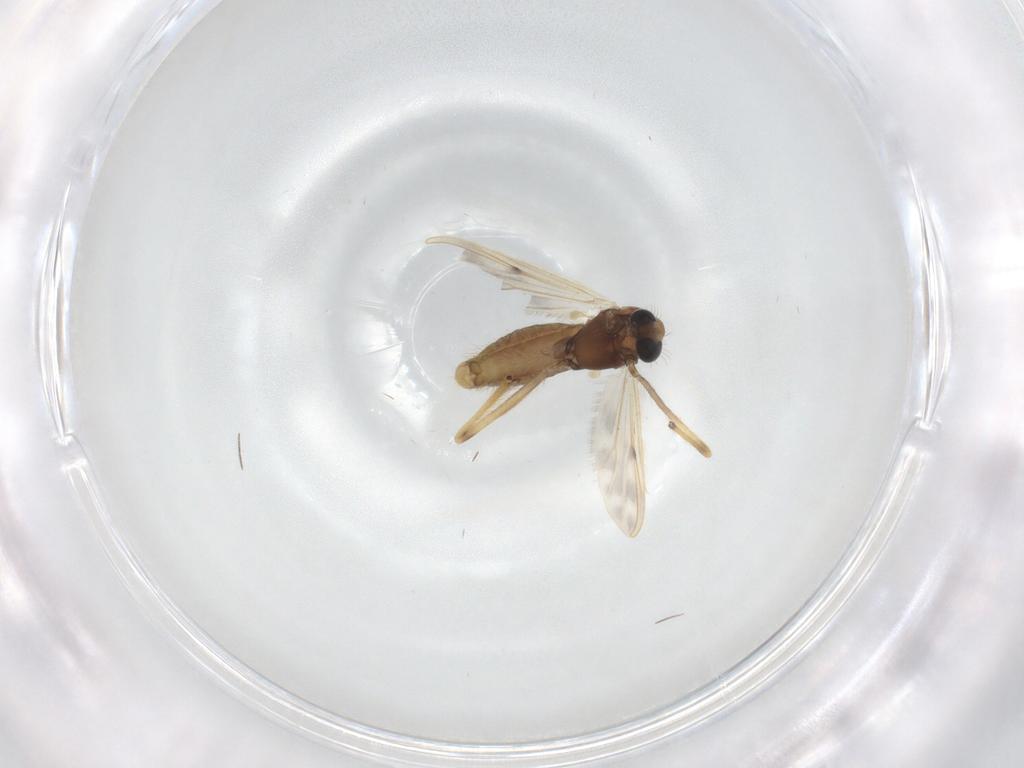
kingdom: Animalia
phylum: Arthropoda
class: Insecta
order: Diptera
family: Chironomidae
